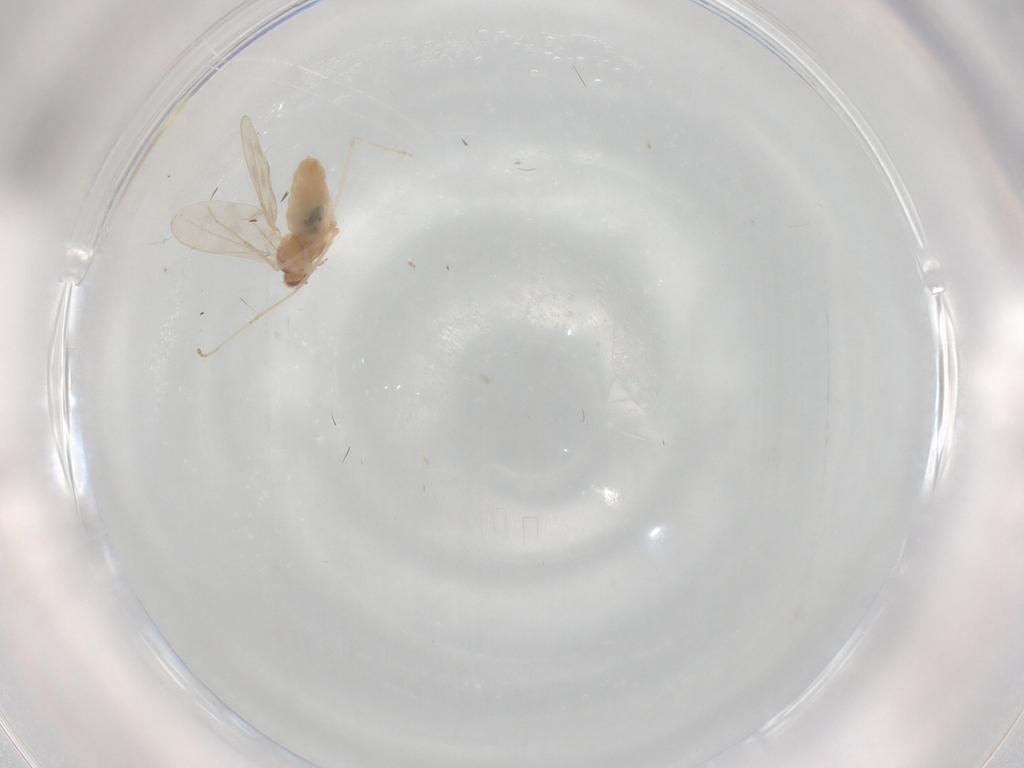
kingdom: Animalia
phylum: Arthropoda
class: Insecta
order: Diptera
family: Cecidomyiidae
